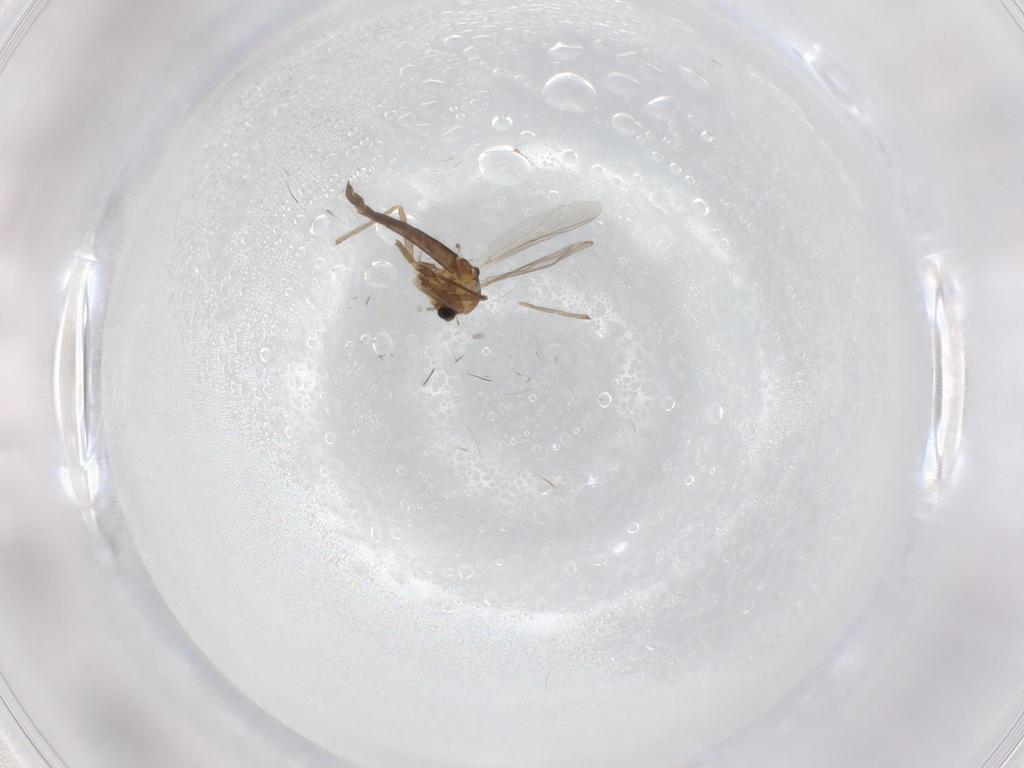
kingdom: Animalia
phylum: Arthropoda
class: Insecta
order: Diptera
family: Chironomidae
